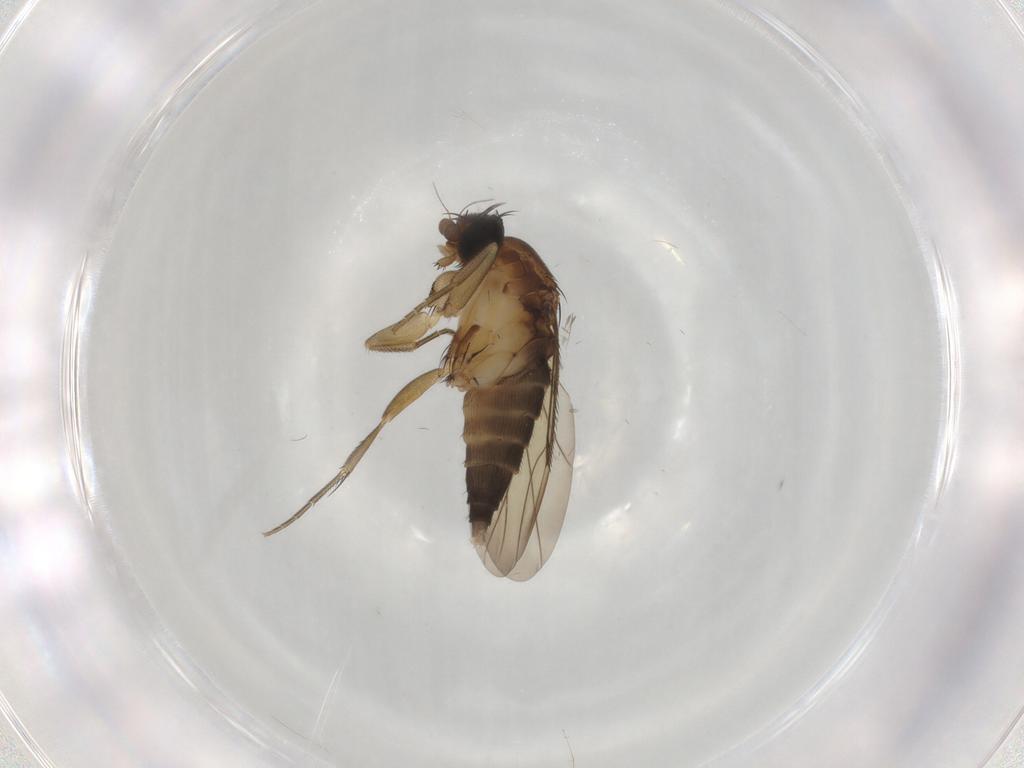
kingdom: Animalia
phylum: Arthropoda
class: Insecta
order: Diptera
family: Phoridae
